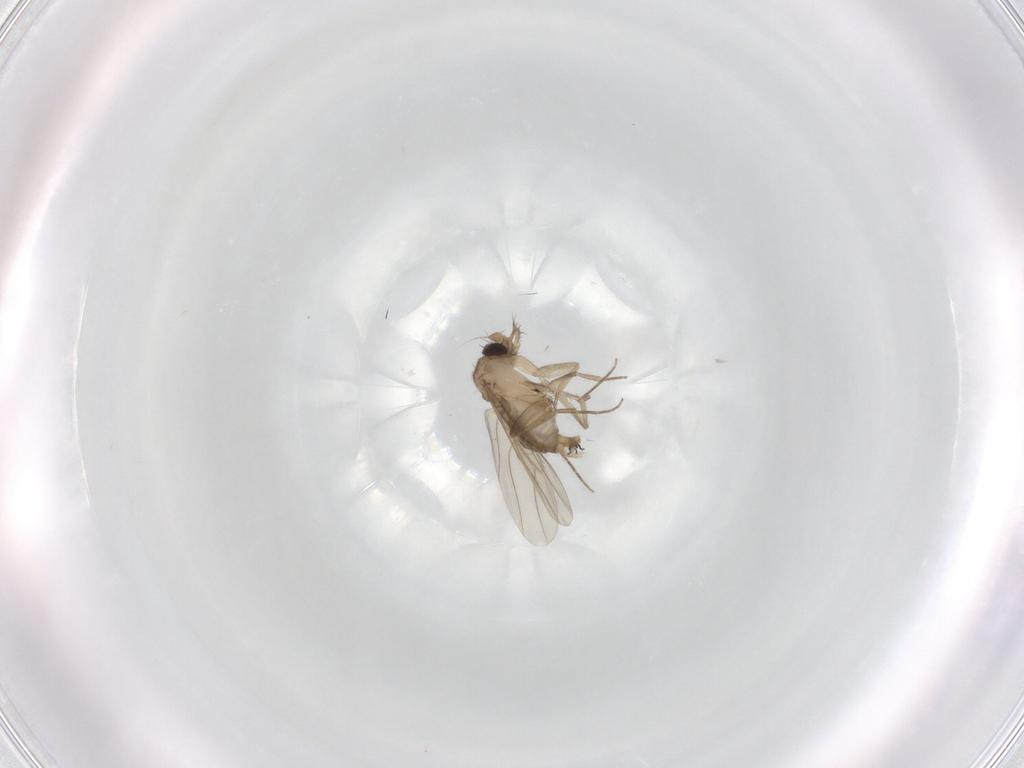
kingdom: Animalia
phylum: Arthropoda
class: Insecta
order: Diptera
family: Phoridae
